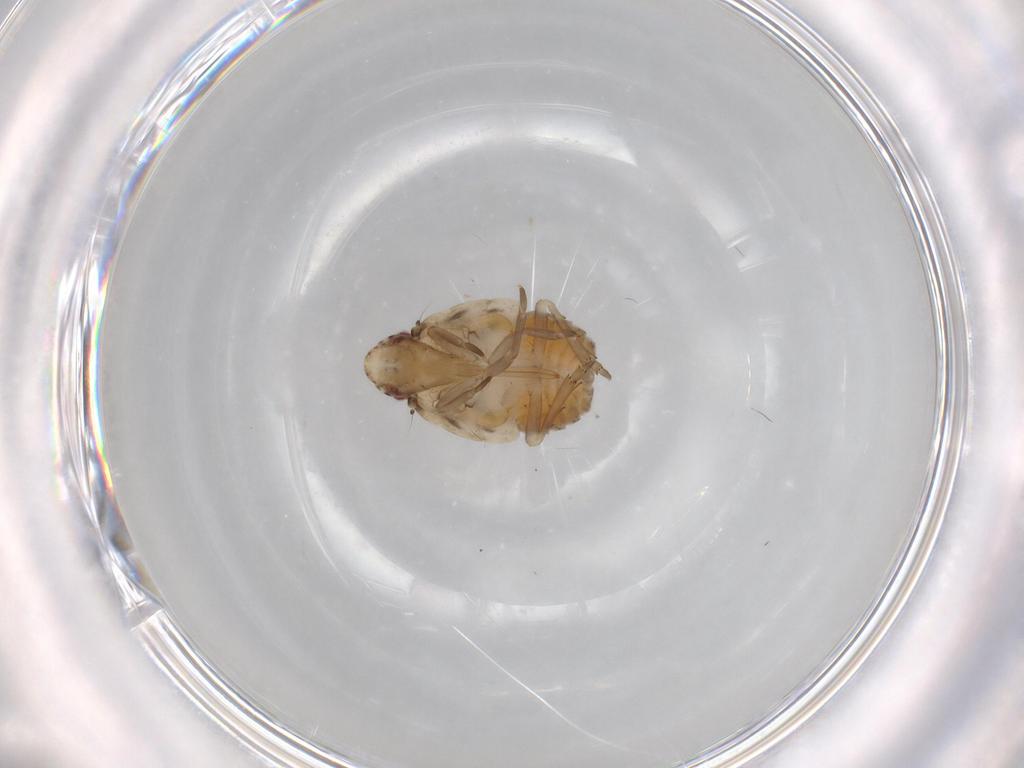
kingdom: Animalia
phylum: Arthropoda
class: Insecta
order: Hemiptera
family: Flatidae
